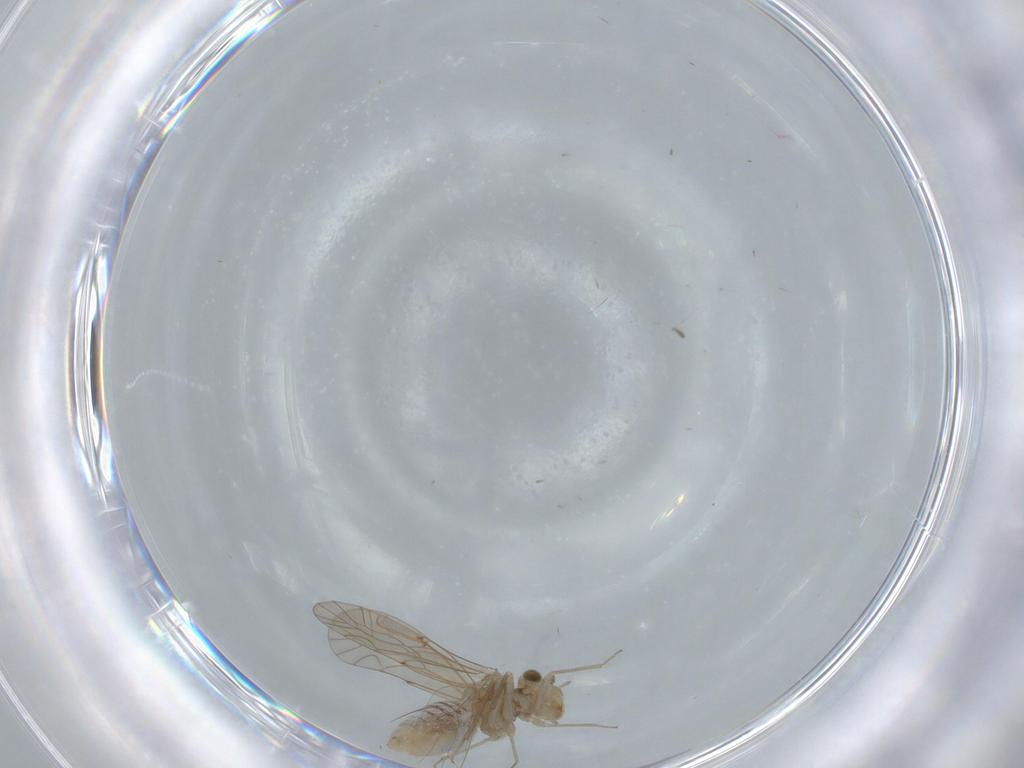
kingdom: Animalia
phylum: Arthropoda
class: Insecta
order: Psocodea
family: Lachesillidae
